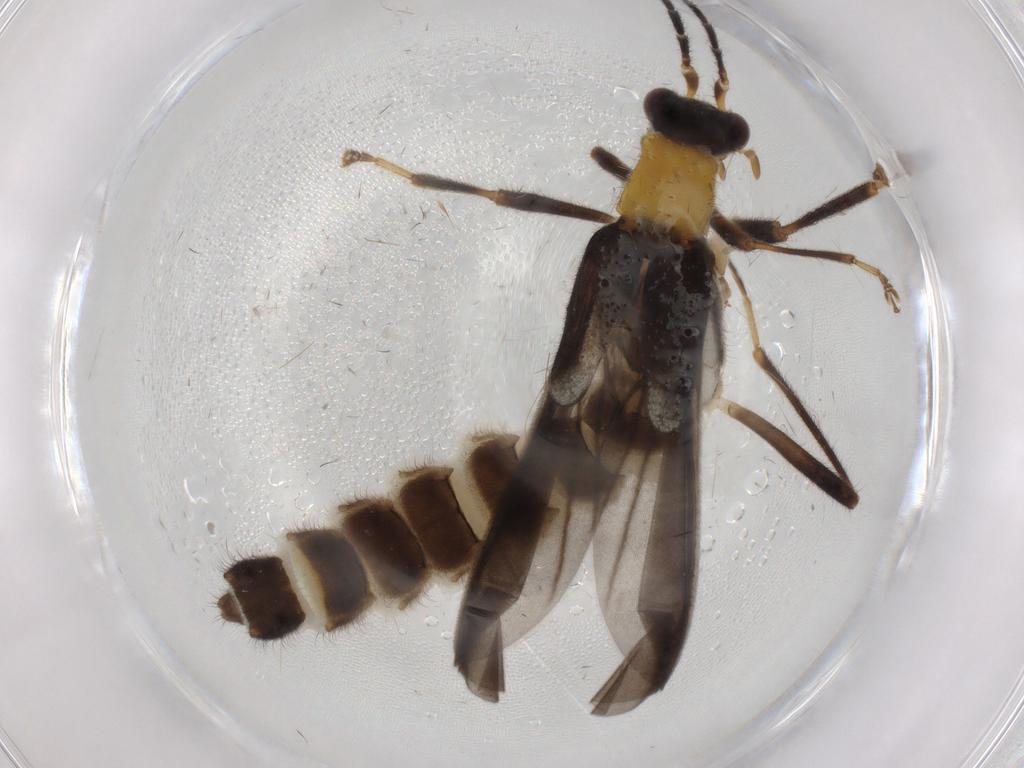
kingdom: Animalia
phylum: Arthropoda
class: Insecta
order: Coleoptera
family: Cantharidae
